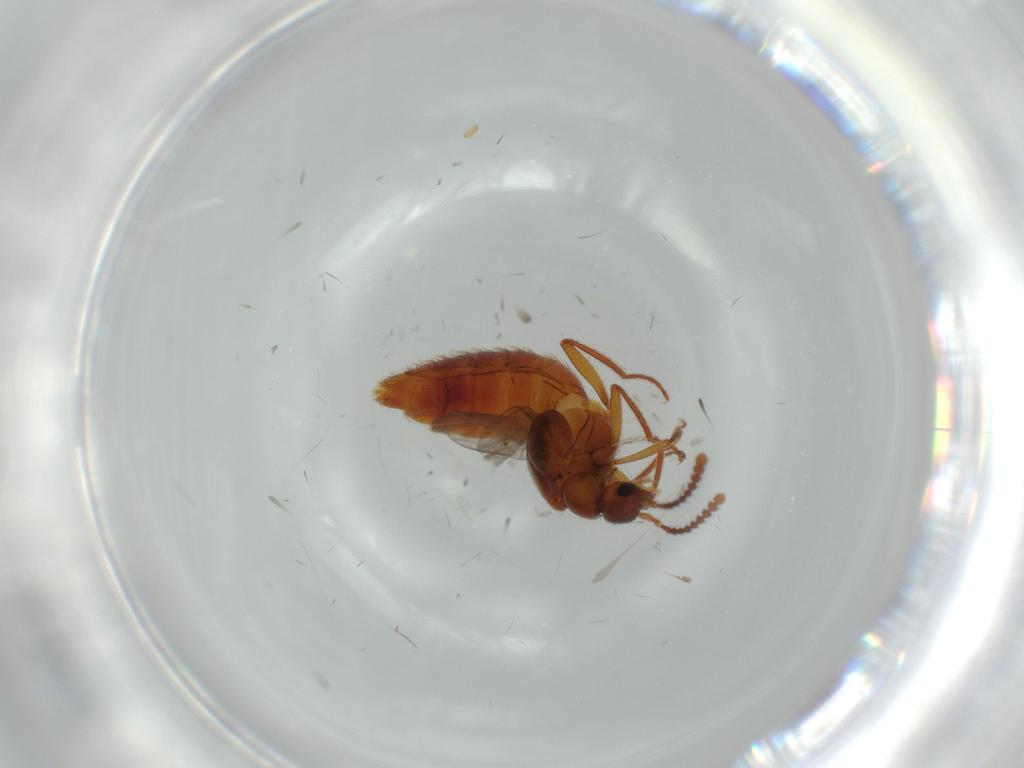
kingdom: Animalia
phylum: Arthropoda
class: Insecta
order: Coleoptera
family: Staphylinidae
